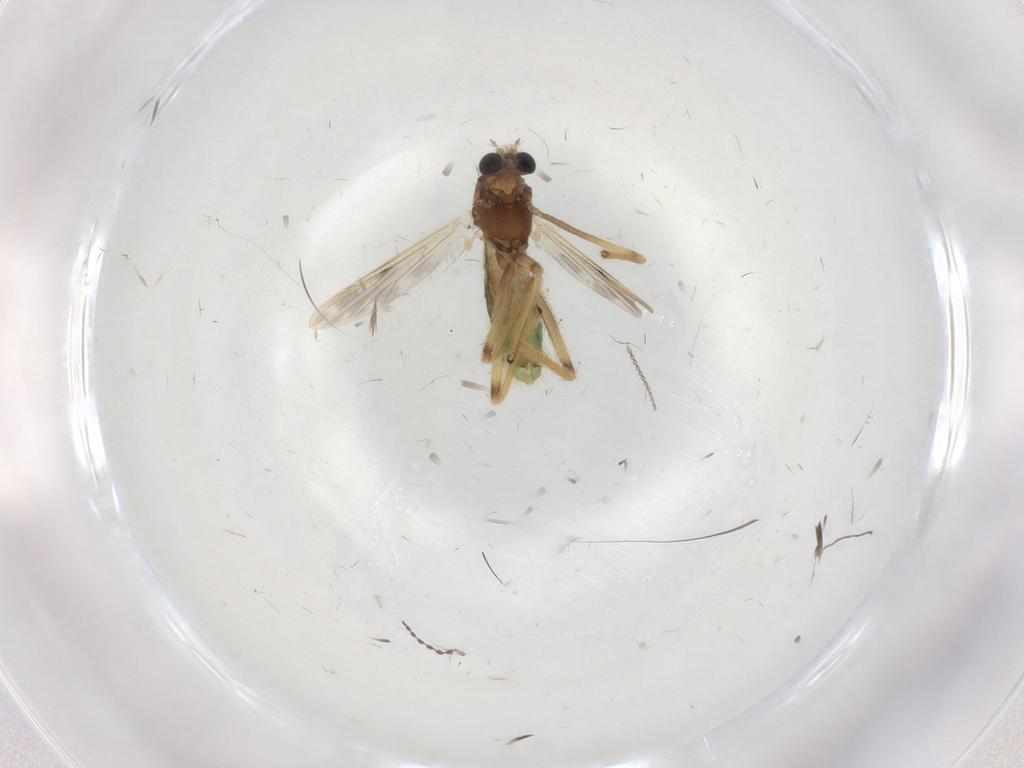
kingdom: Animalia
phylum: Arthropoda
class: Insecta
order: Diptera
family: Chironomidae
